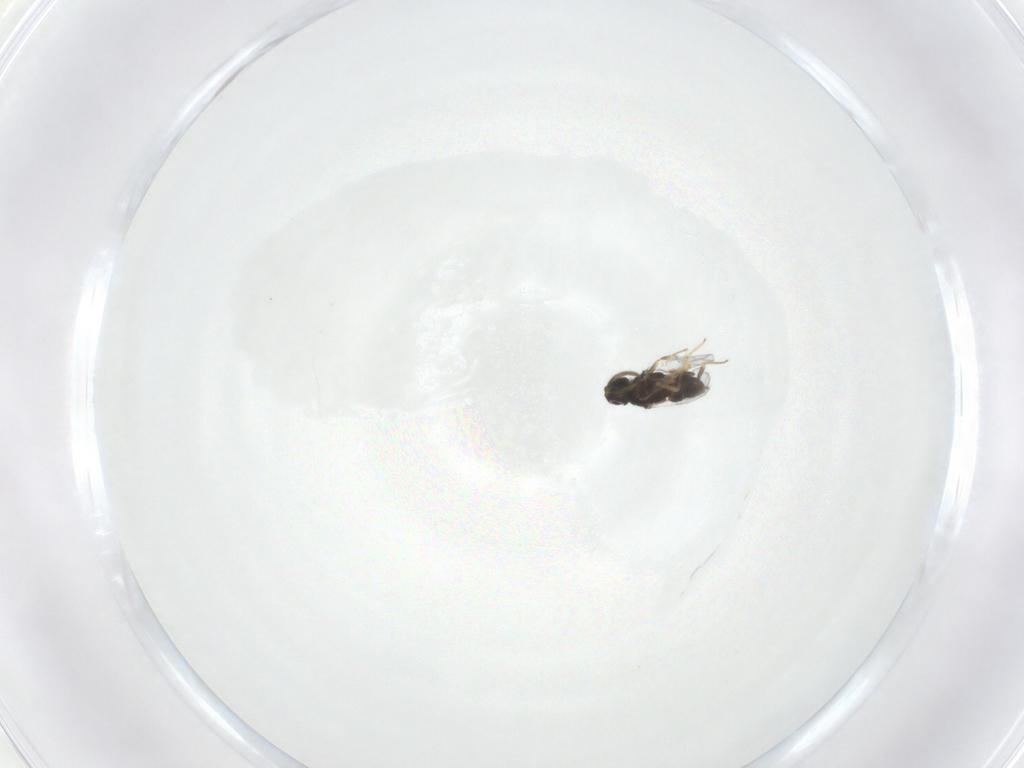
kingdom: Animalia
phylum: Arthropoda
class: Insecta
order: Hymenoptera
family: Encyrtidae
